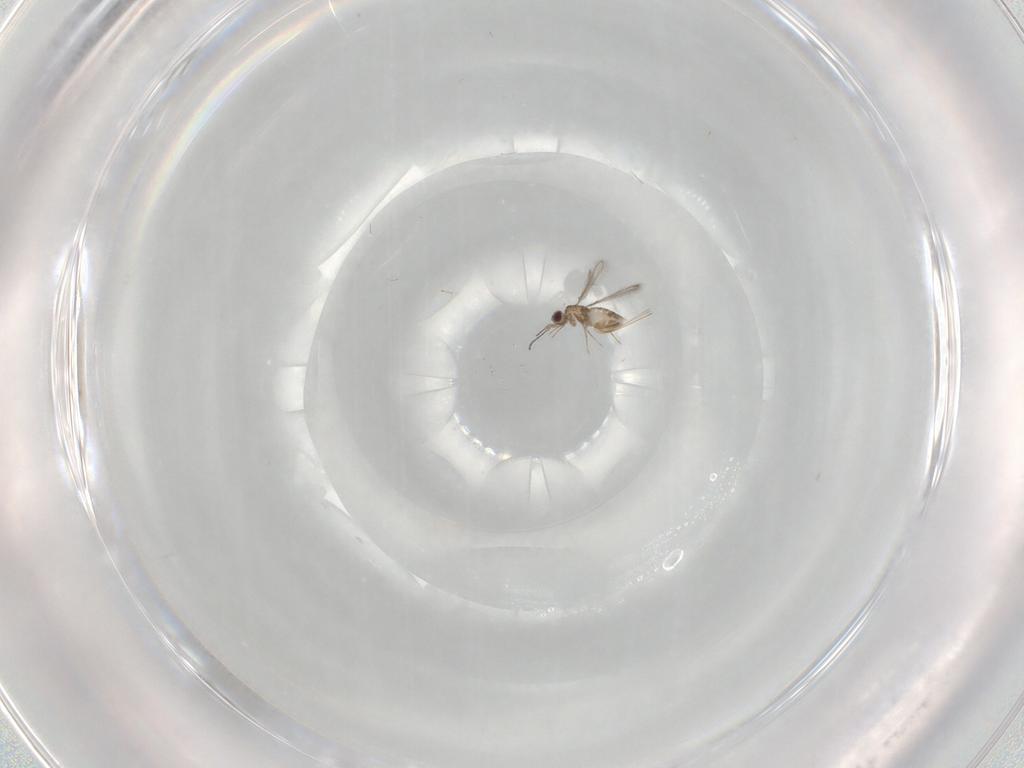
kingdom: Animalia
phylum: Arthropoda
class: Insecta
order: Hymenoptera
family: Mymaridae
